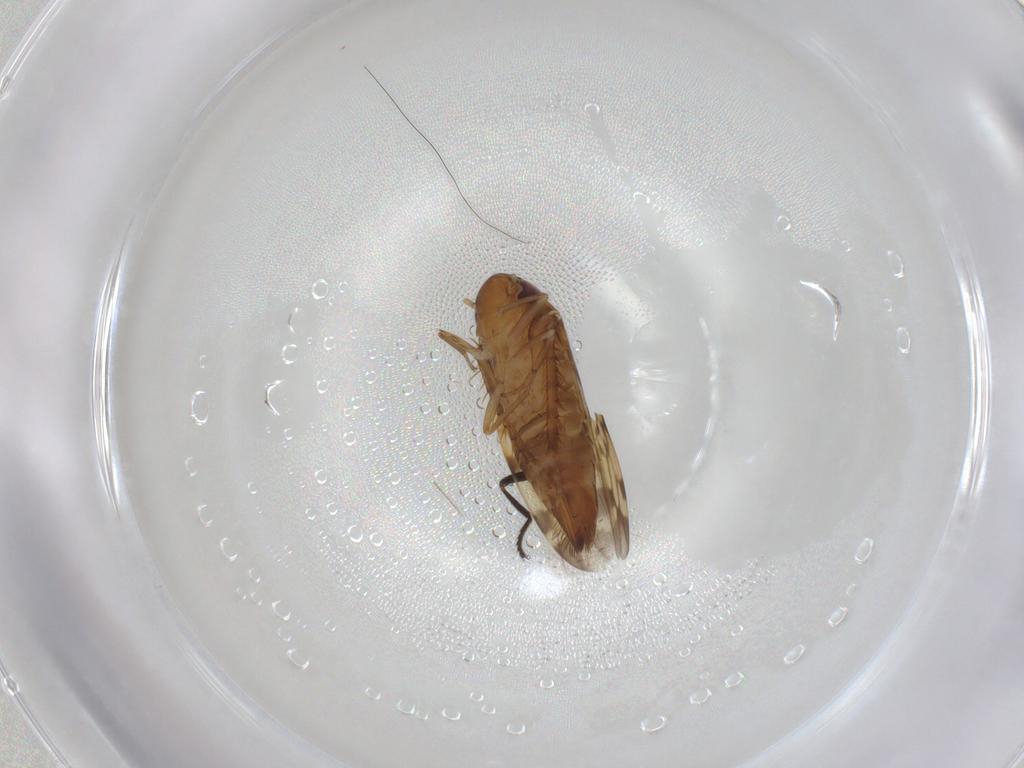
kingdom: Animalia
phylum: Arthropoda
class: Insecta
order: Hemiptera
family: Cicadellidae
